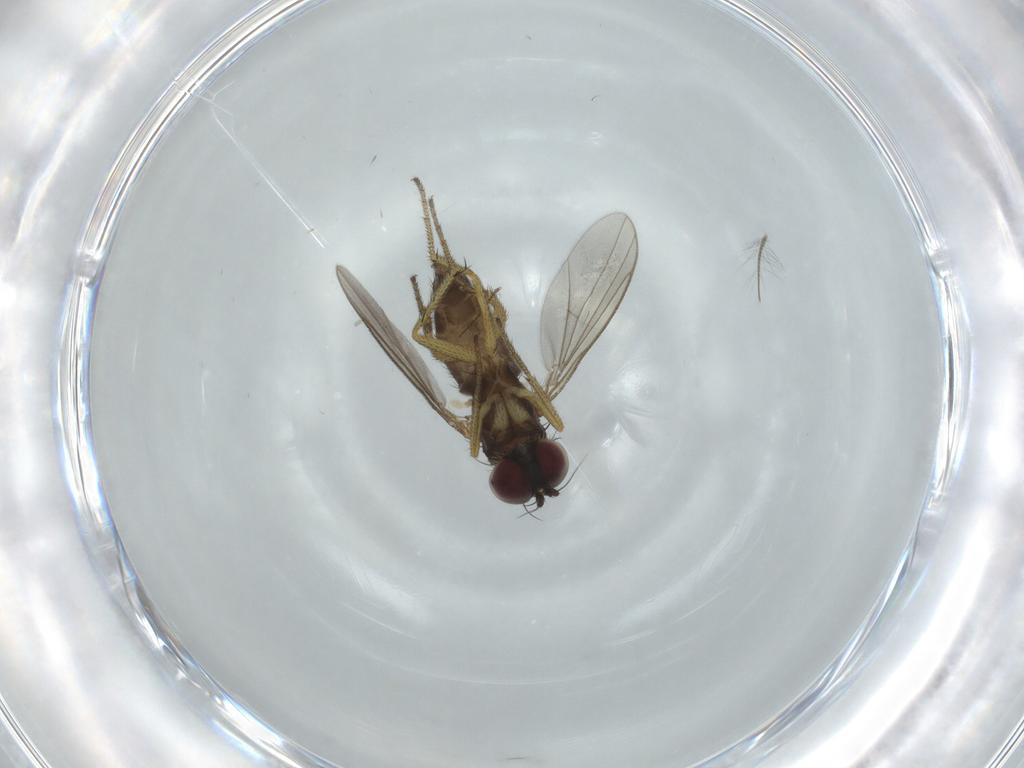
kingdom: Animalia
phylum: Arthropoda
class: Insecta
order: Diptera
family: Dolichopodidae
